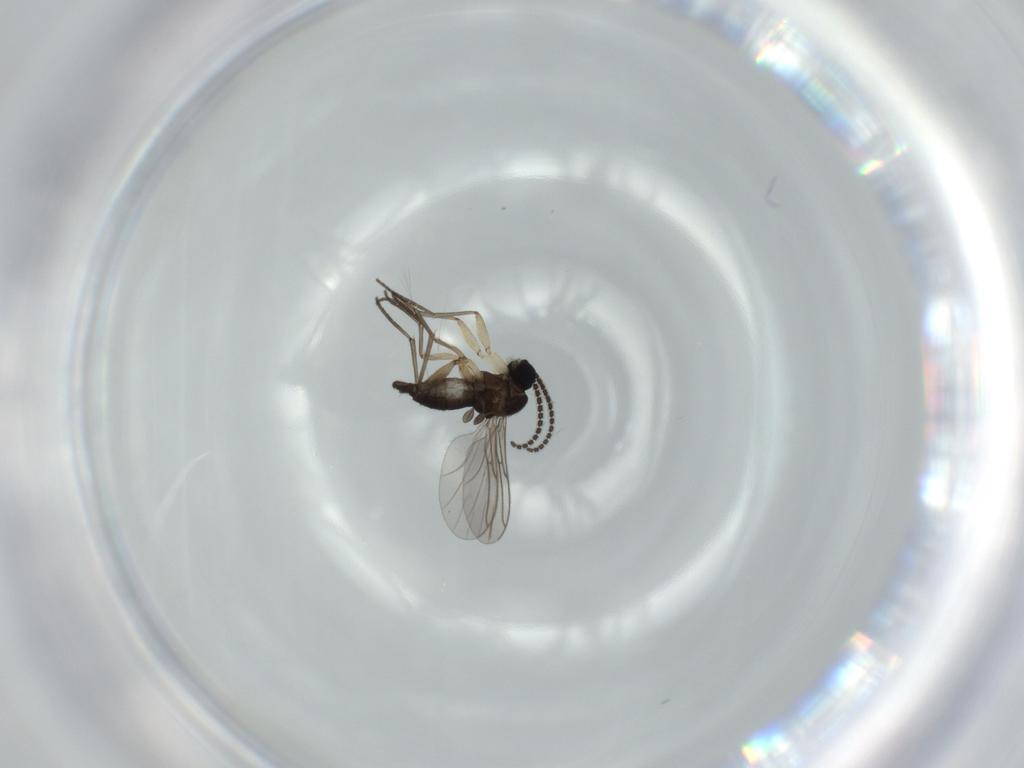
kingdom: Animalia
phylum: Arthropoda
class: Insecta
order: Diptera
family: Sciaridae
